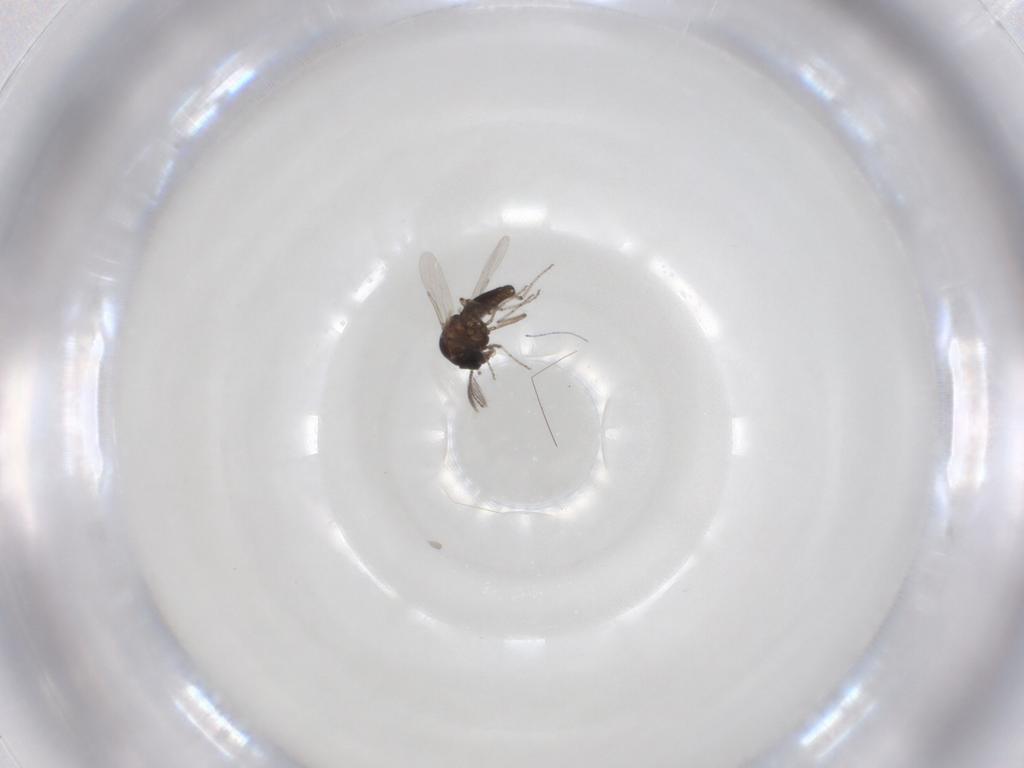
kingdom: Animalia
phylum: Arthropoda
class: Insecta
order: Diptera
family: Ceratopogonidae
